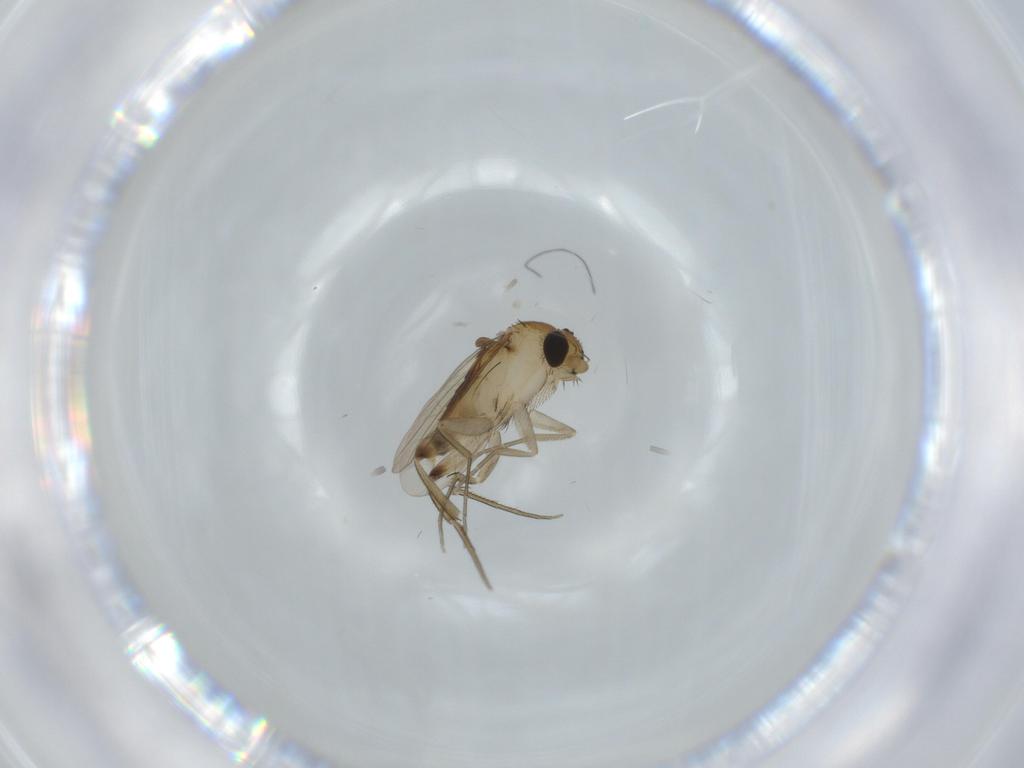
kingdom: Animalia
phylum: Arthropoda
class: Insecta
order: Diptera
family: Phoridae
